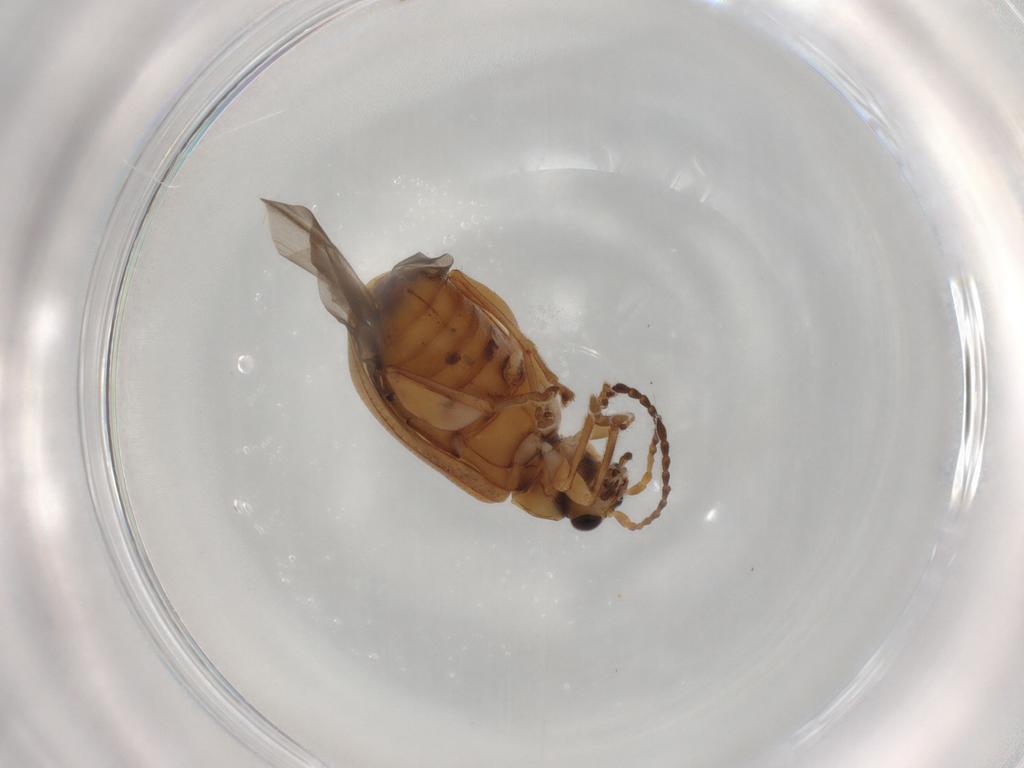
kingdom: Animalia
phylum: Arthropoda
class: Insecta
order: Coleoptera
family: Chrysomelidae
